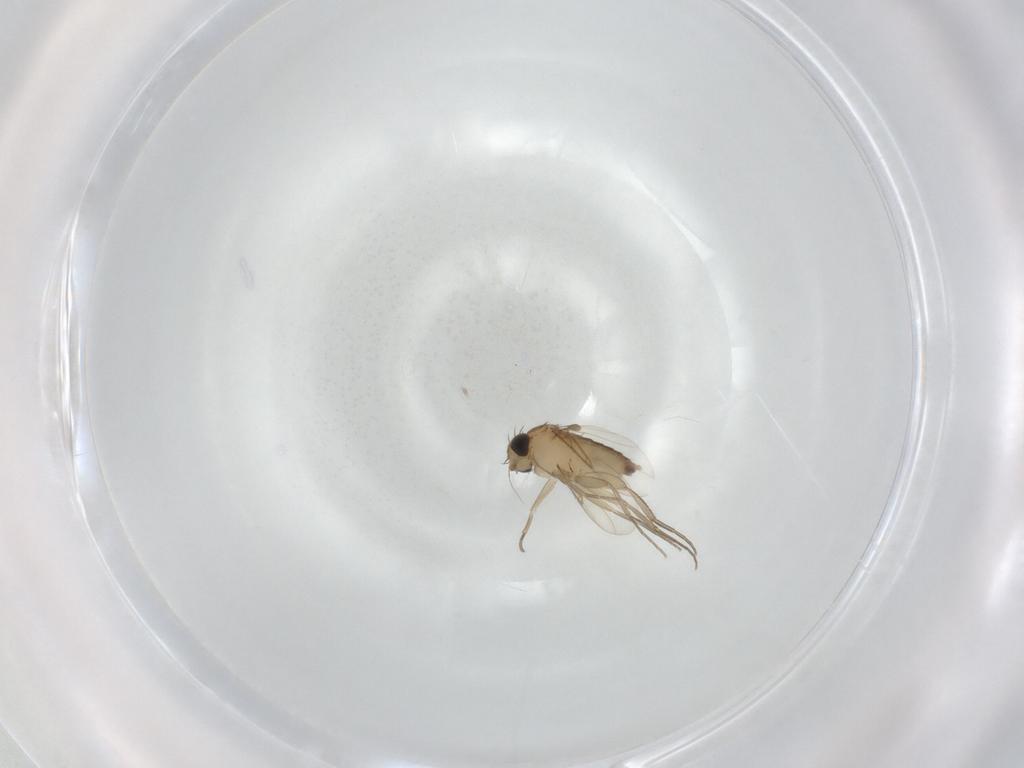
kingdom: Animalia
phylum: Arthropoda
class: Insecta
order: Diptera
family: Phoridae
